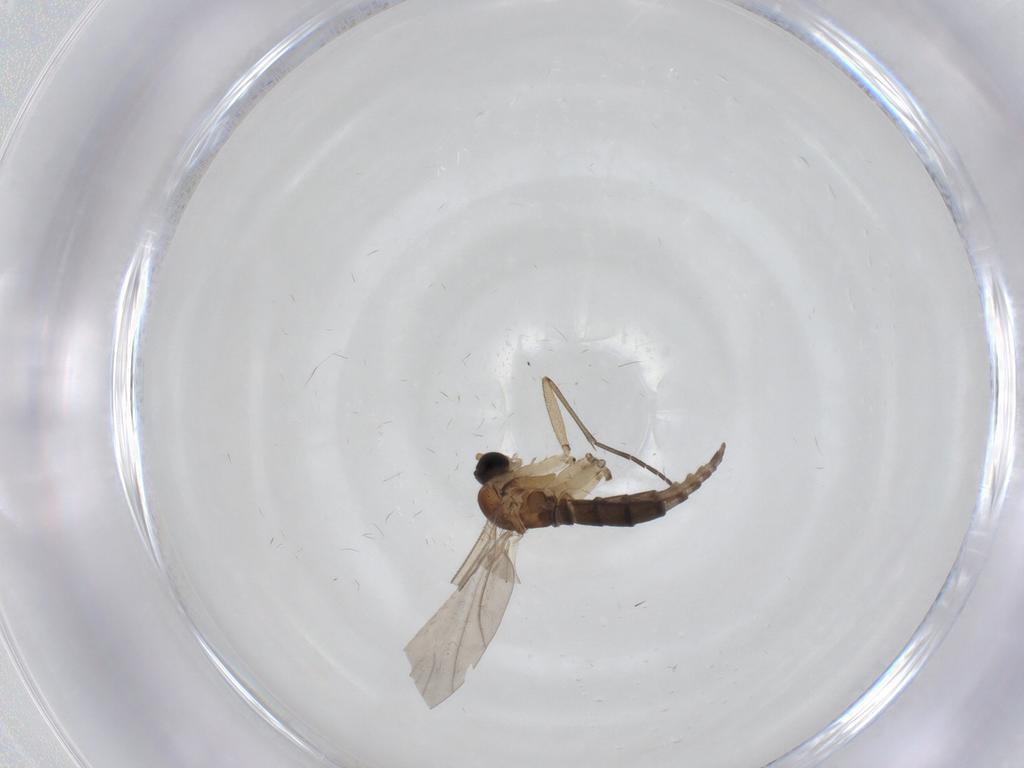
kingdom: Animalia
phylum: Arthropoda
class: Insecta
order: Diptera
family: Sciaridae
